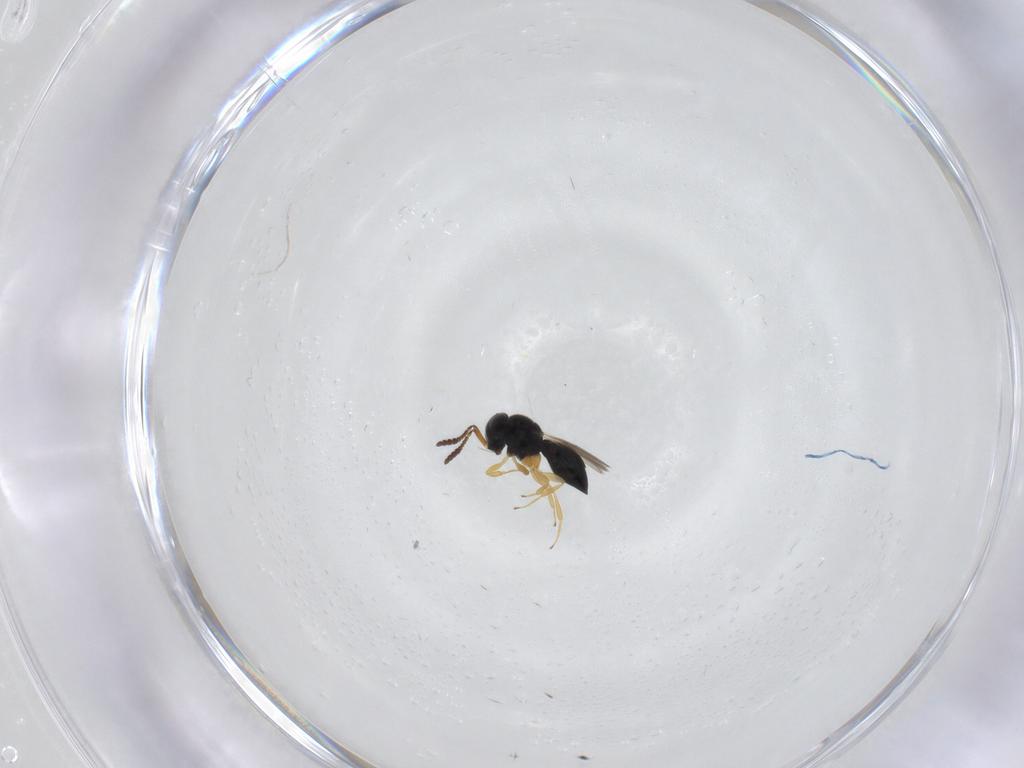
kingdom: Animalia
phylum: Arthropoda
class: Insecta
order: Hymenoptera
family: Scelionidae
